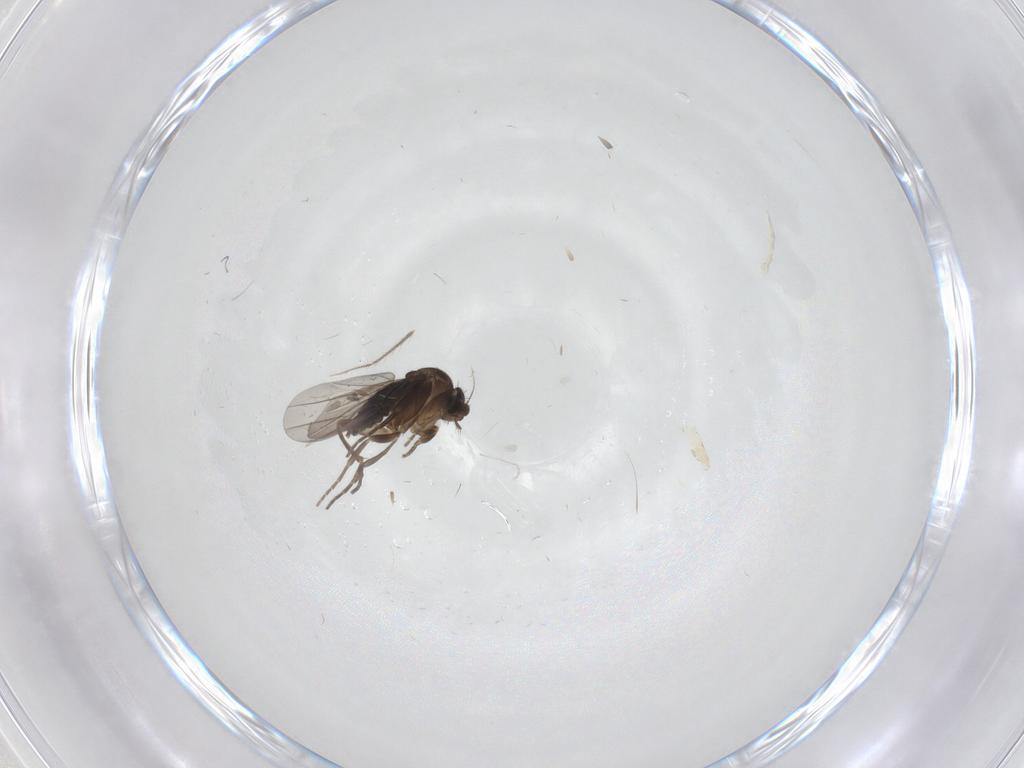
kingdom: Animalia
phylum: Arthropoda
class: Insecta
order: Diptera
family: Phoridae
